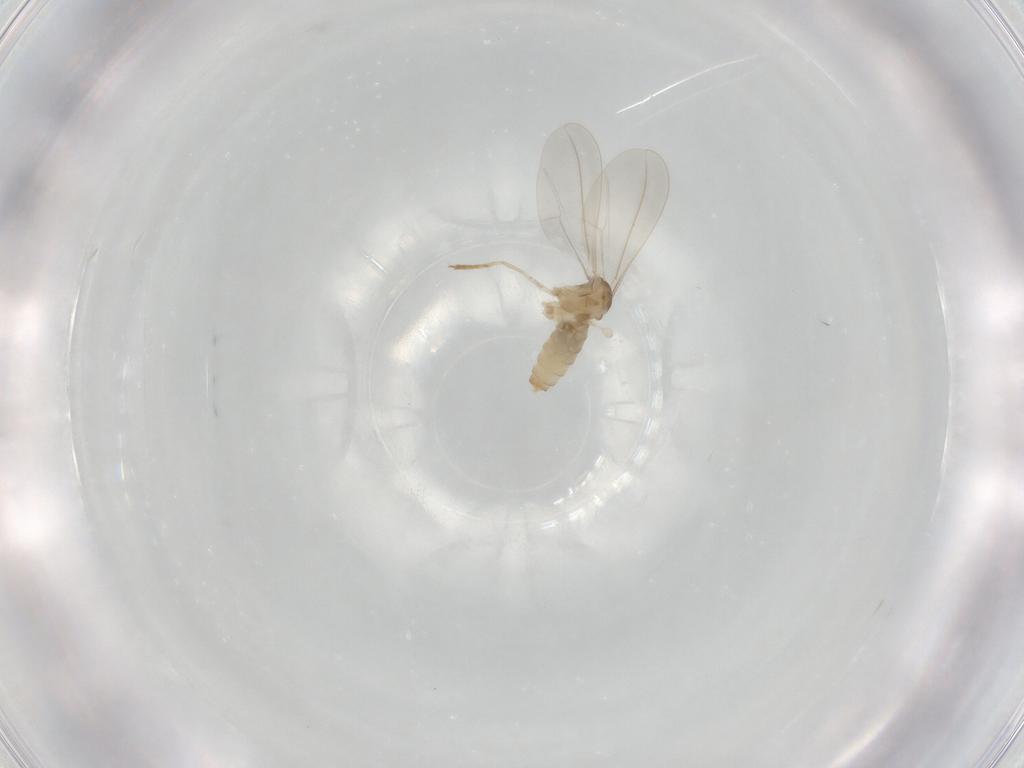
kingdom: Animalia
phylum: Arthropoda
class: Insecta
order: Diptera
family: Cecidomyiidae
